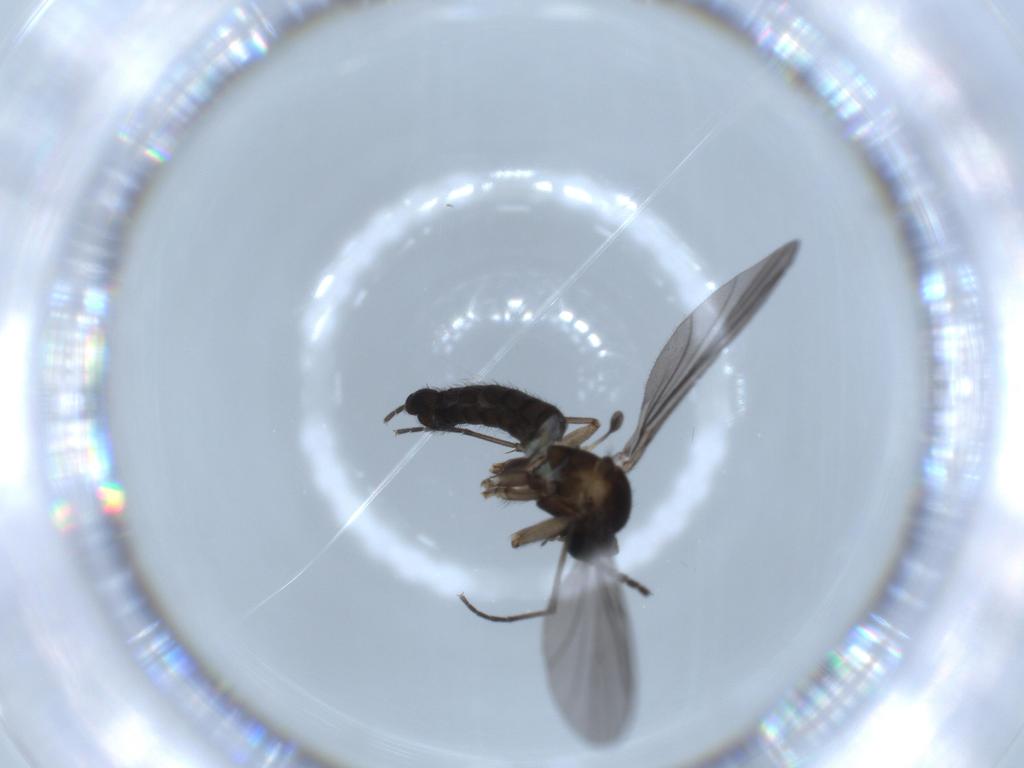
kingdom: Animalia
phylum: Arthropoda
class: Insecta
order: Diptera
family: Sciaridae
